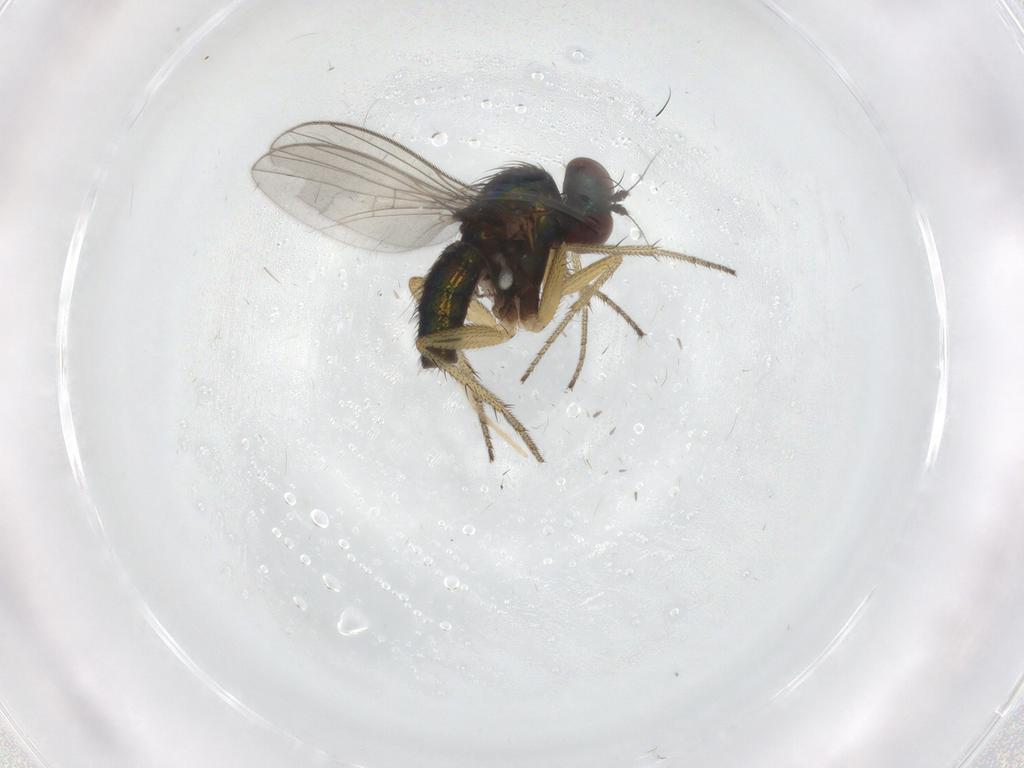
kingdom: Animalia
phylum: Arthropoda
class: Insecta
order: Diptera
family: Dolichopodidae
